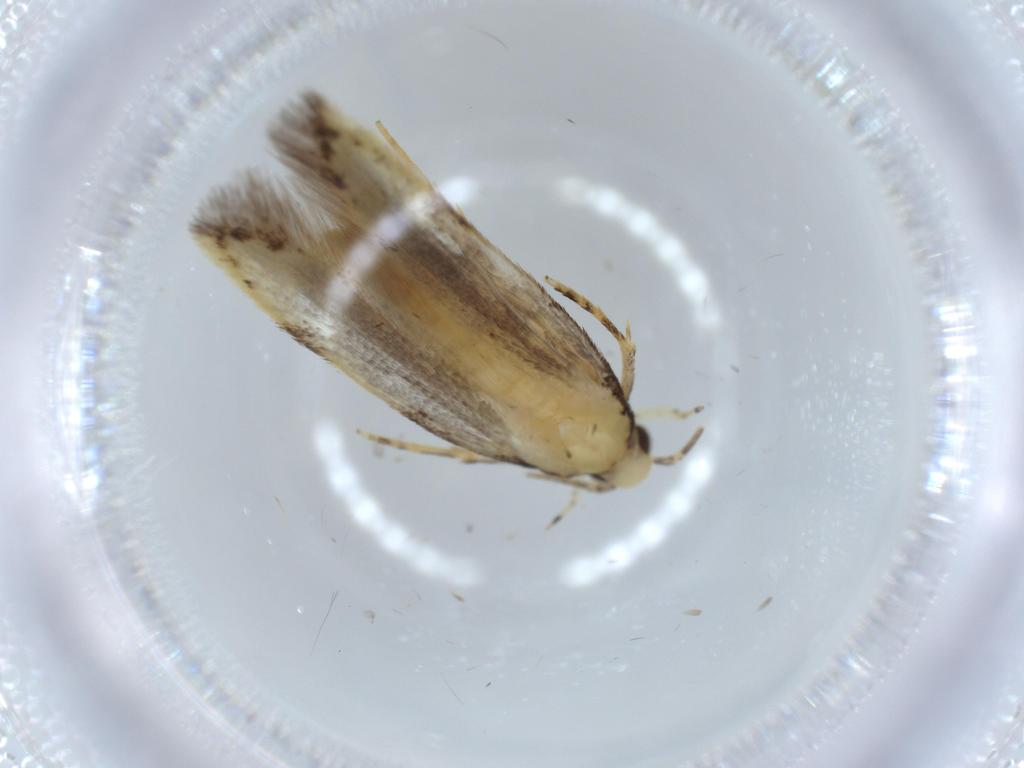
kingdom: Animalia
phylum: Arthropoda
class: Insecta
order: Lepidoptera
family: Autostichidae
